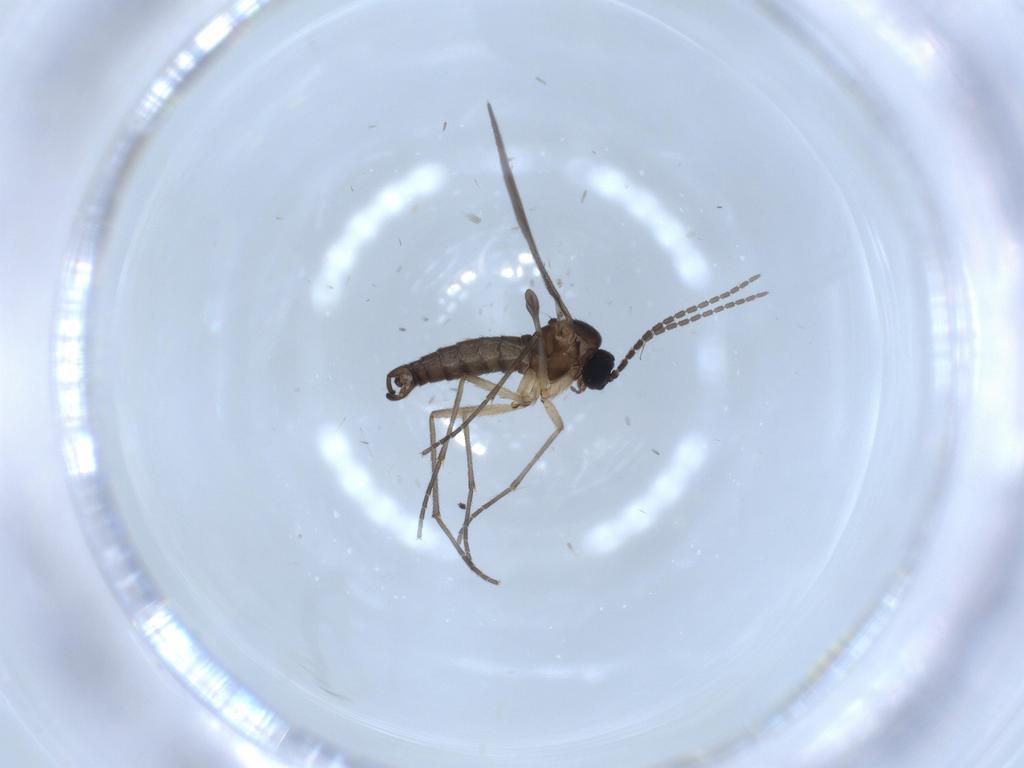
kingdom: Animalia
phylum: Arthropoda
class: Insecta
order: Diptera
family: Sciaridae
